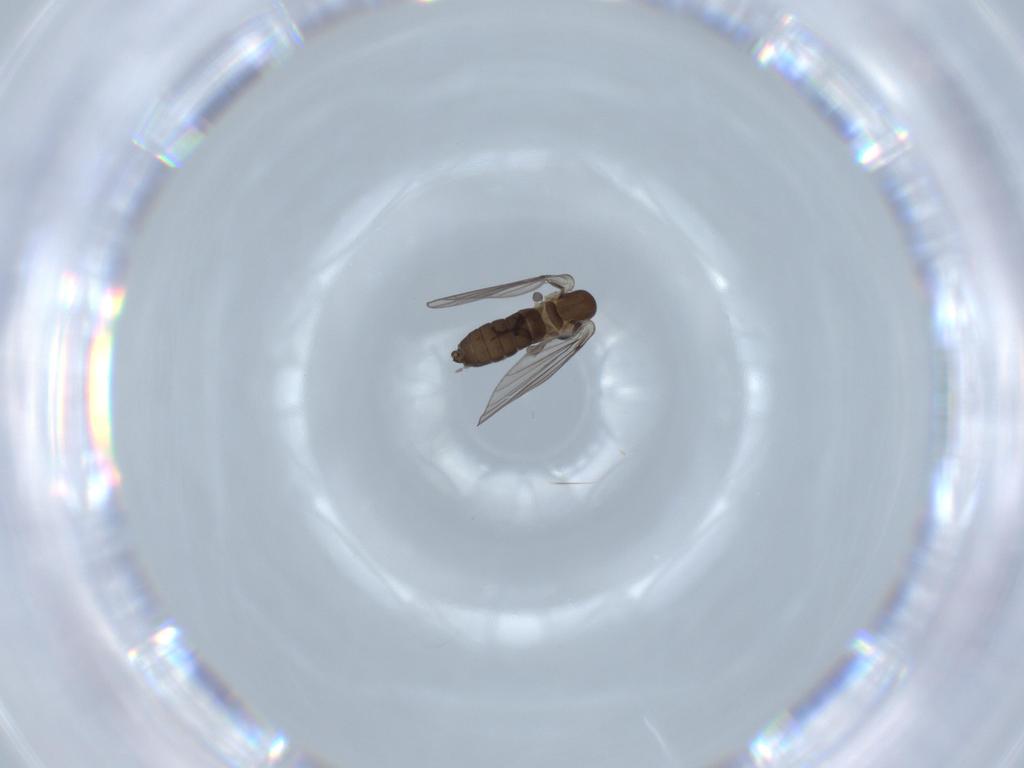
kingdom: Animalia
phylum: Arthropoda
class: Insecta
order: Diptera
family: Psychodidae
